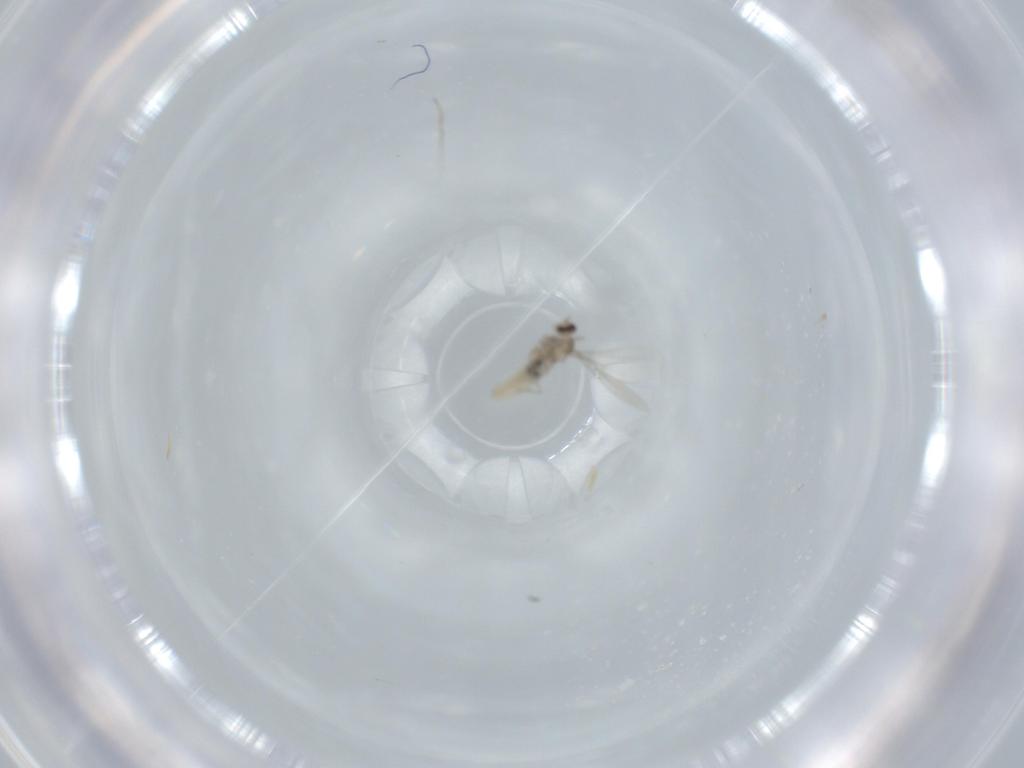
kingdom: Animalia
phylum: Arthropoda
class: Insecta
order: Diptera
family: Cecidomyiidae
